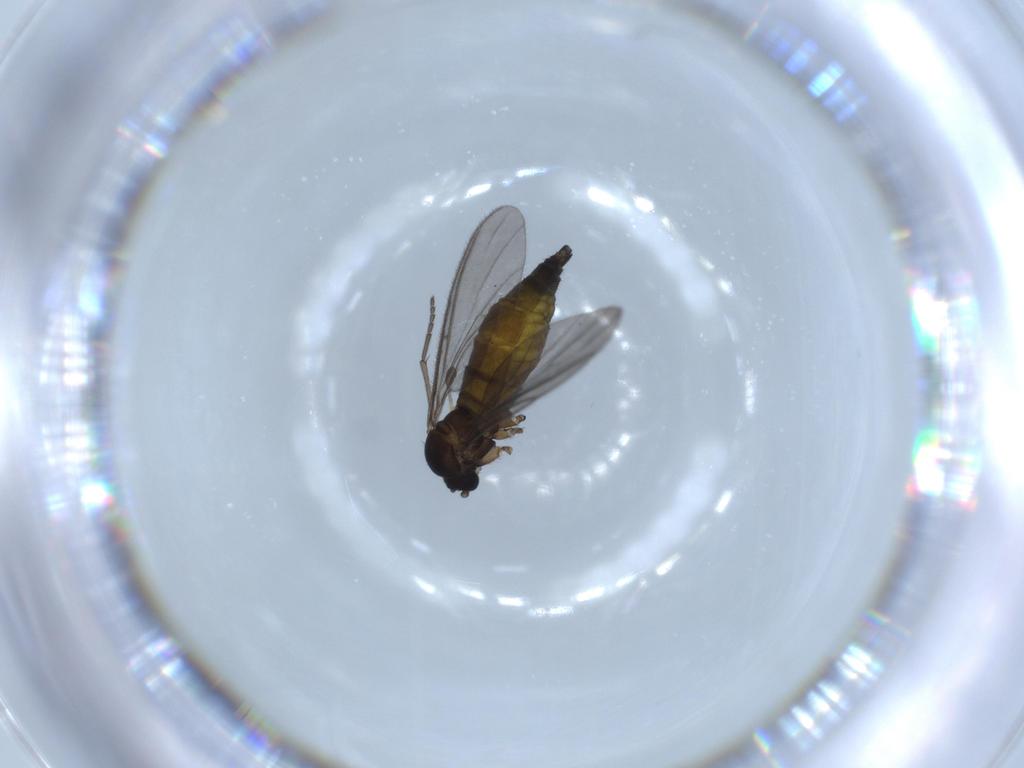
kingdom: Animalia
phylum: Arthropoda
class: Insecta
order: Diptera
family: Sciaridae
